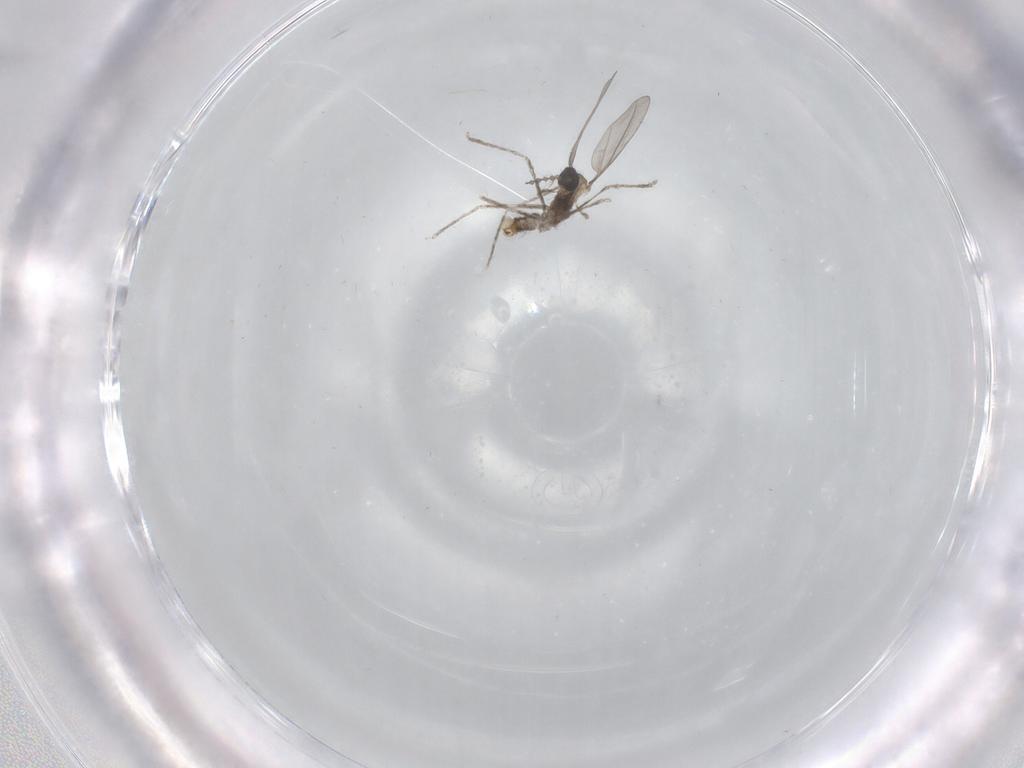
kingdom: Animalia
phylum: Arthropoda
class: Insecta
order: Diptera
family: Cecidomyiidae
